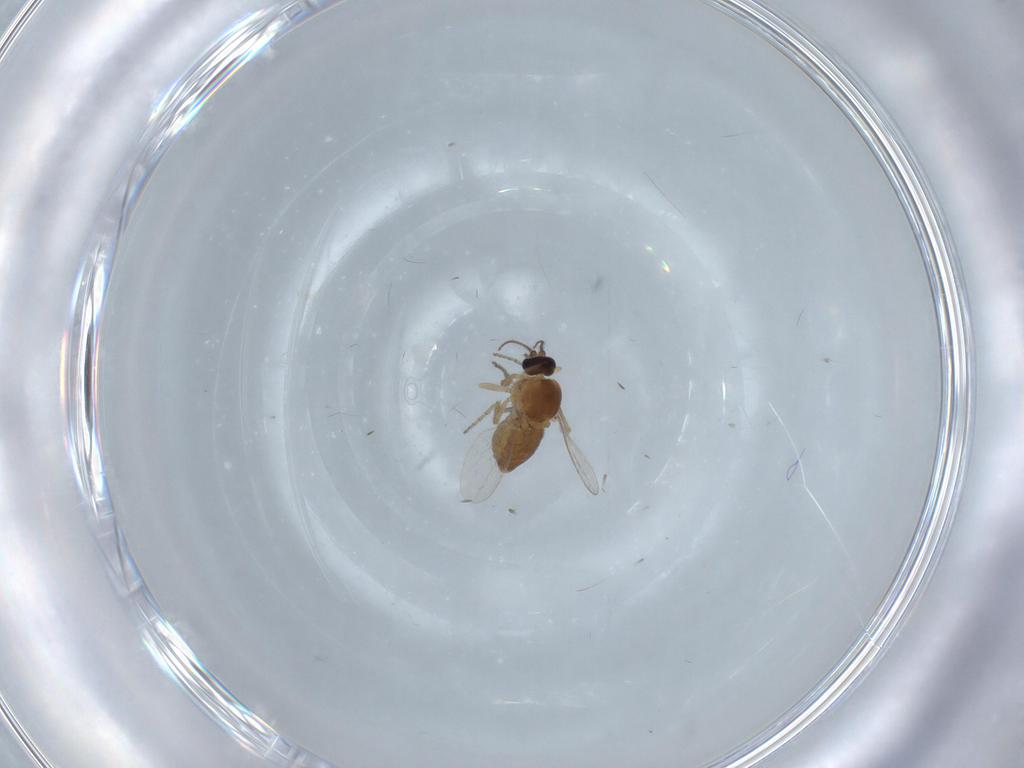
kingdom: Animalia
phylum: Arthropoda
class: Insecta
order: Diptera
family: Ceratopogonidae
